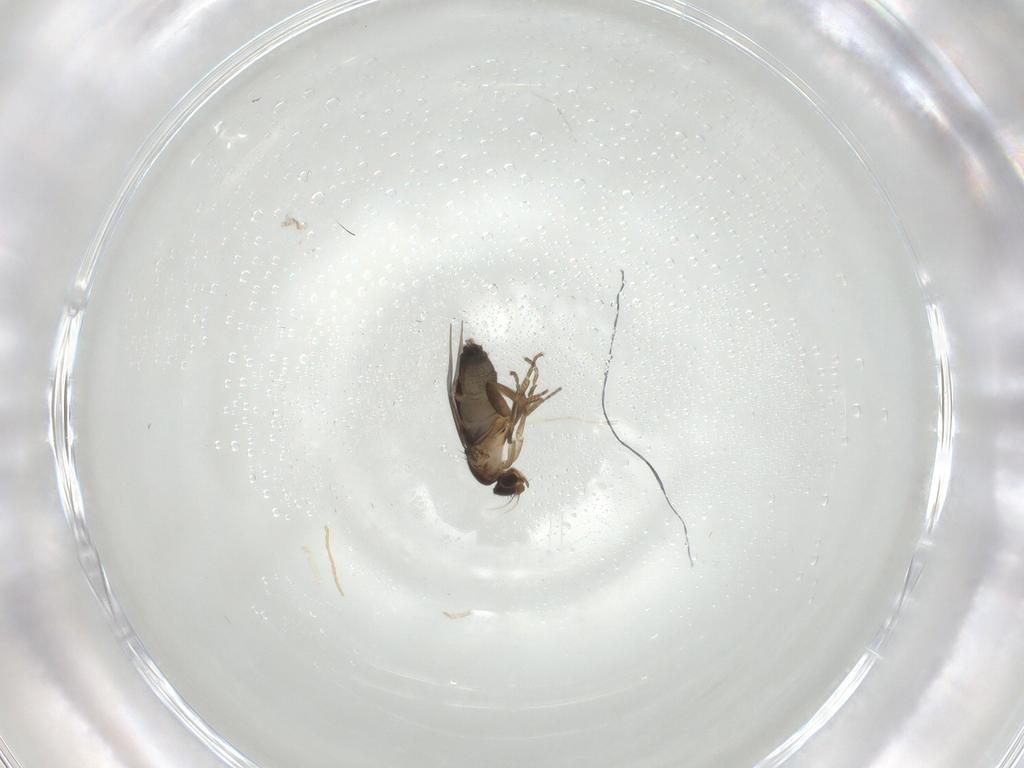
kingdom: Animalia
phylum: Arthropoda
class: Insecta
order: Diptera
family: Phoridae
